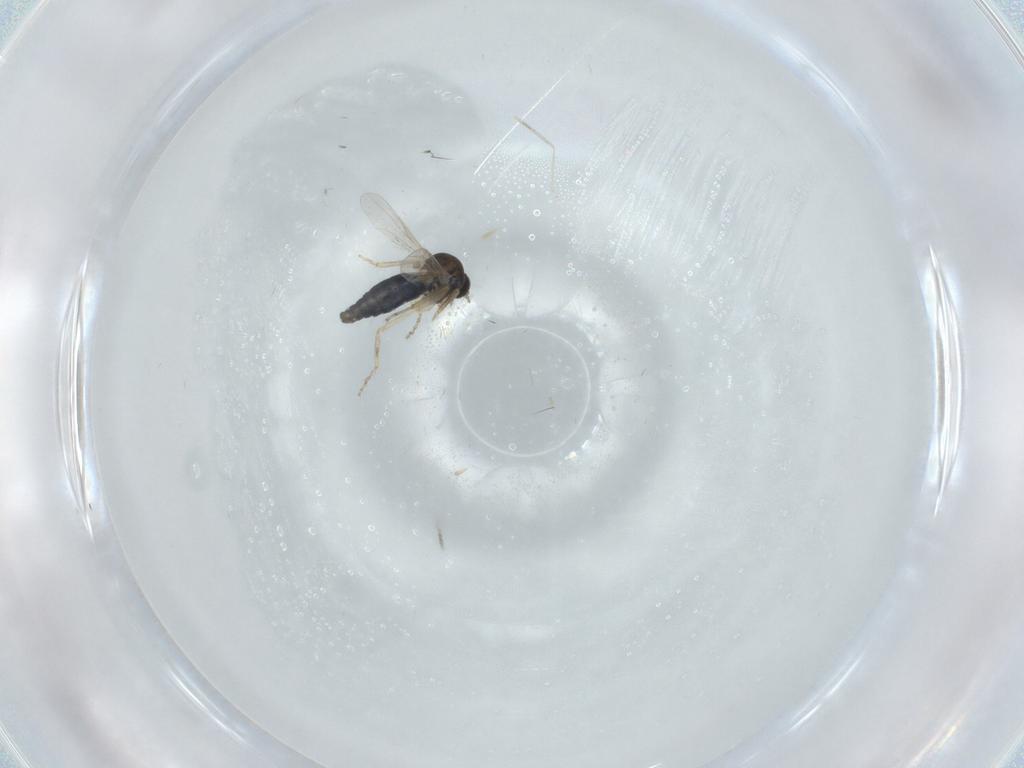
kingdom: Animalia
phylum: Arthropoda
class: Insecta
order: Diptera
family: Ceratopogonidae
